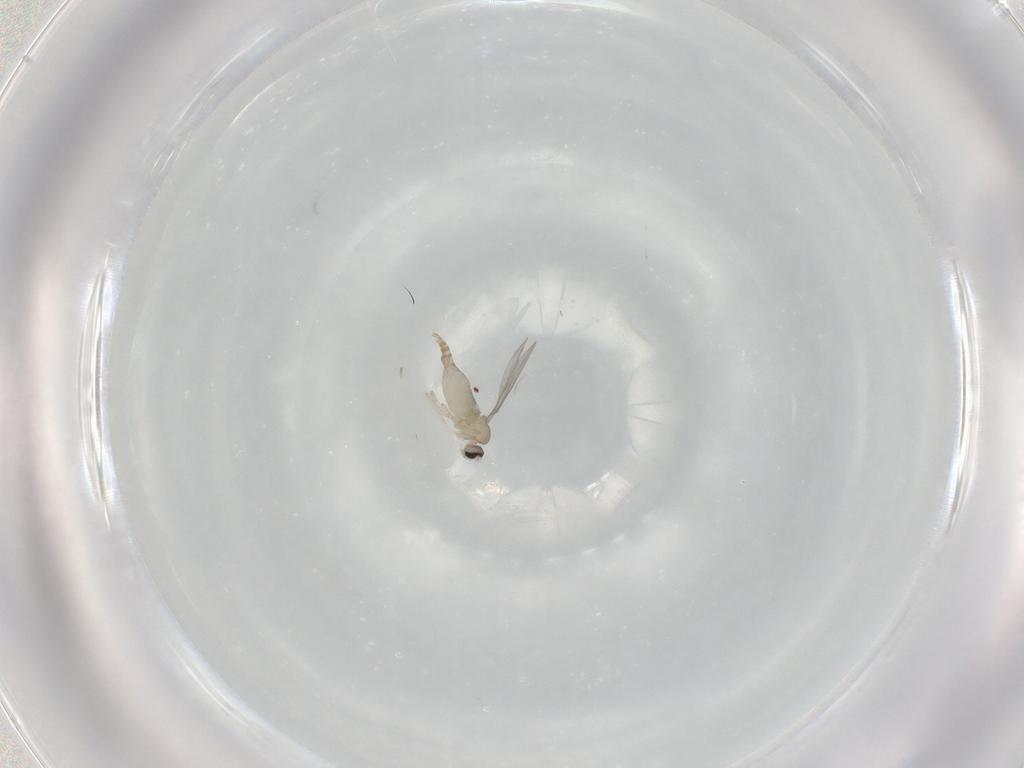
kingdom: Animalia
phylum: Arthropoda
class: Insecta
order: Diptera
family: Cecidomyiidae
